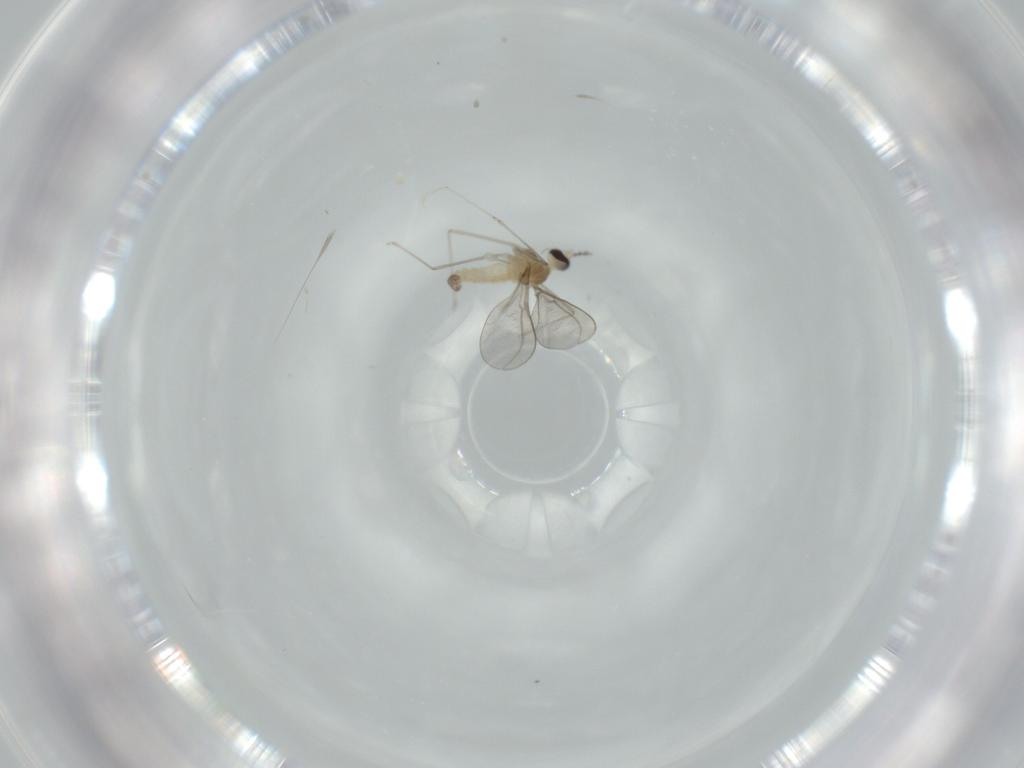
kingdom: Animalia
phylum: Arthropoda
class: Insecta
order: Diptera
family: Cecidomyiidae
